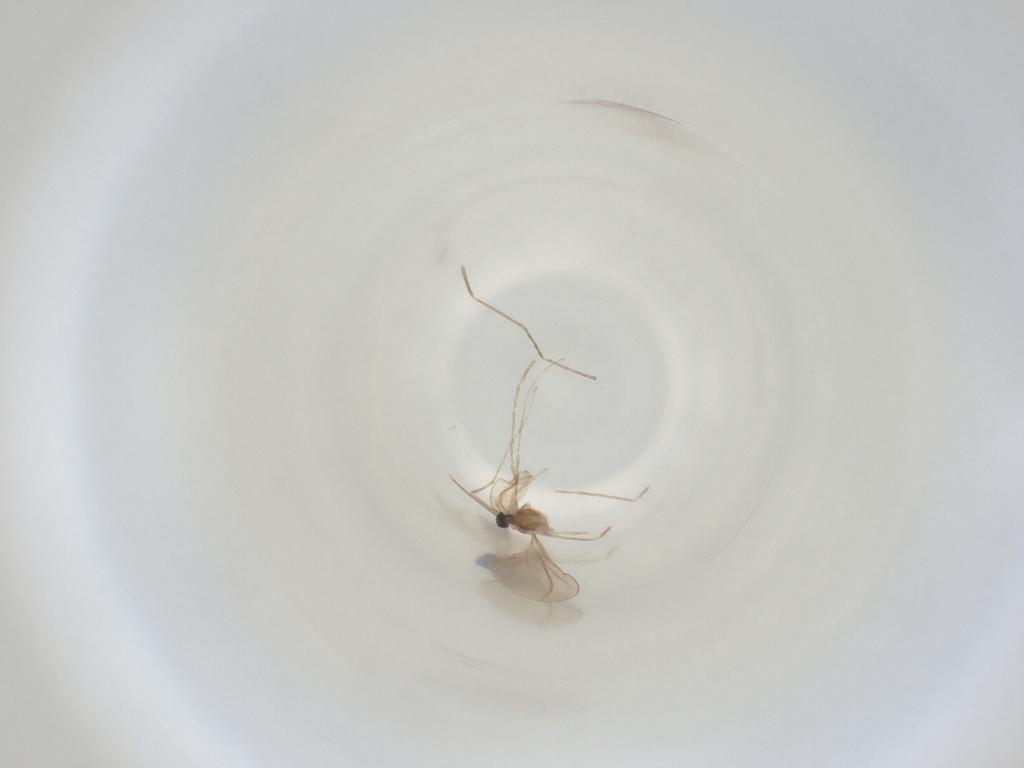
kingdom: Animalia
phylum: Arthropoda
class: Insecta
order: Diptera
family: Cecidomyiidae
